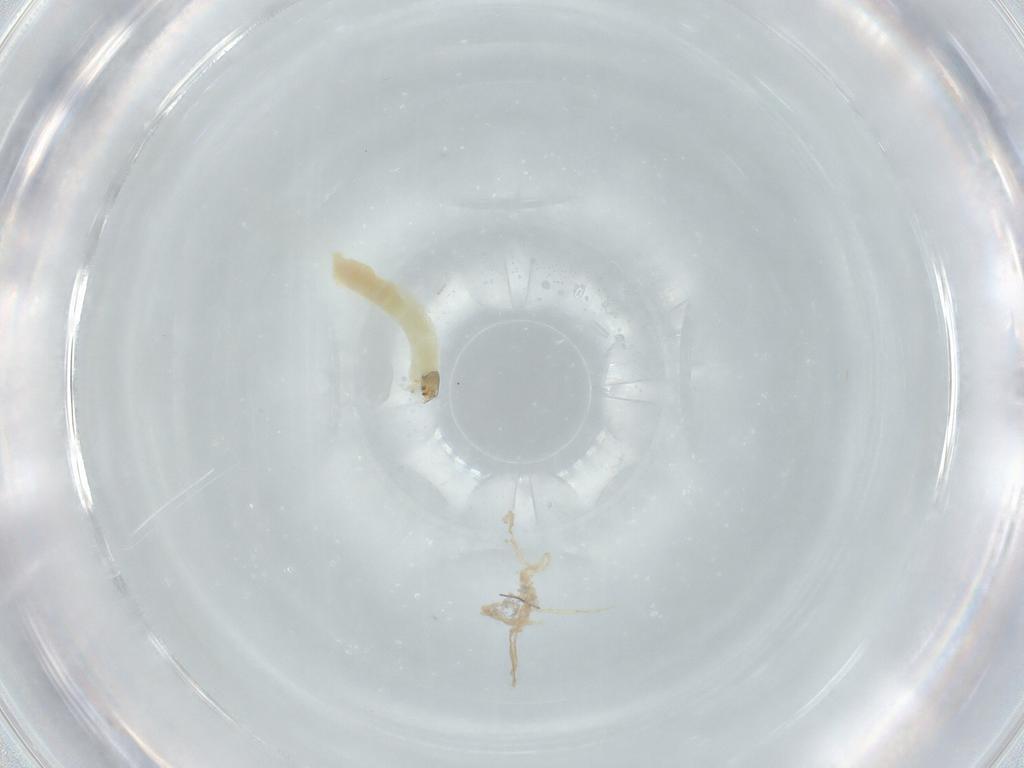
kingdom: Animalia
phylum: Arthropoda
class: Insecta
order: Diptera
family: Chironomidae
